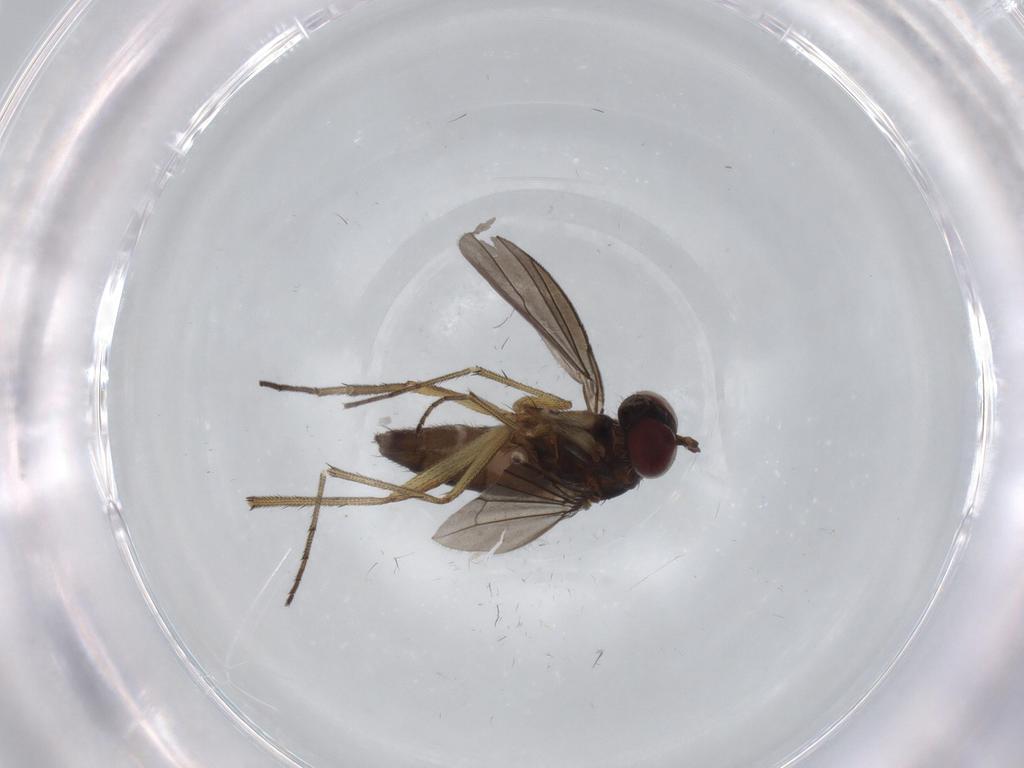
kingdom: Animalia
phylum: Arthropoda
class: Insecta
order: Diptera
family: Dolichopodidae
